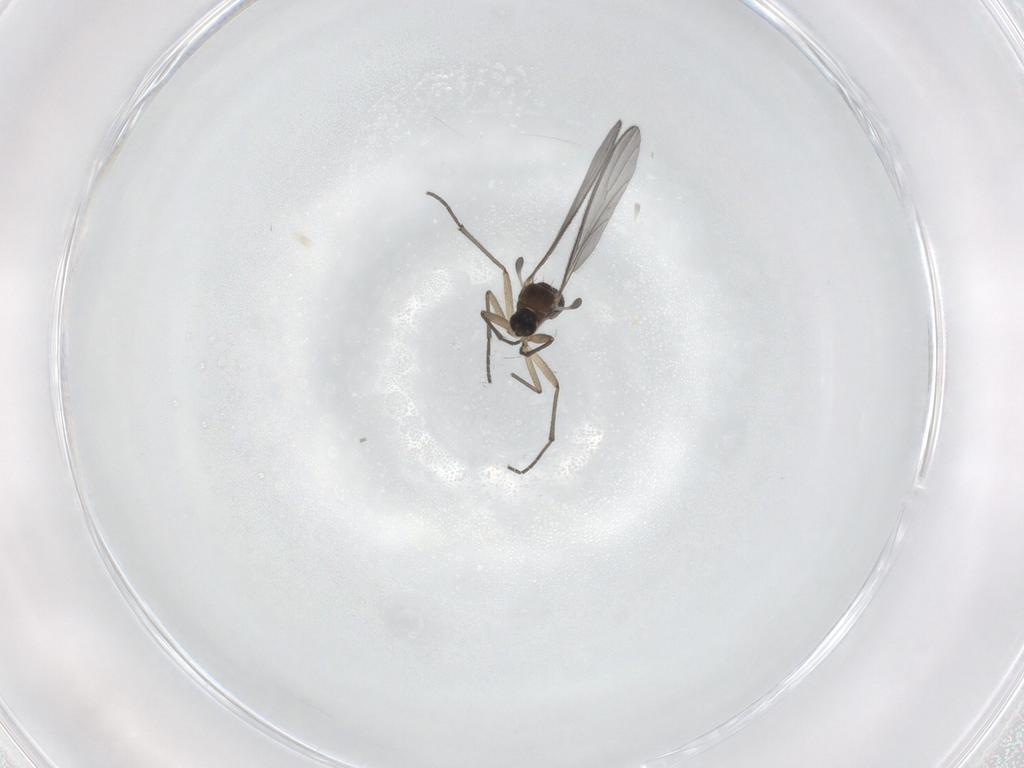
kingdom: Animalia
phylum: Arthropoda
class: Insecta
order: Diptera
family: Sciaridae
